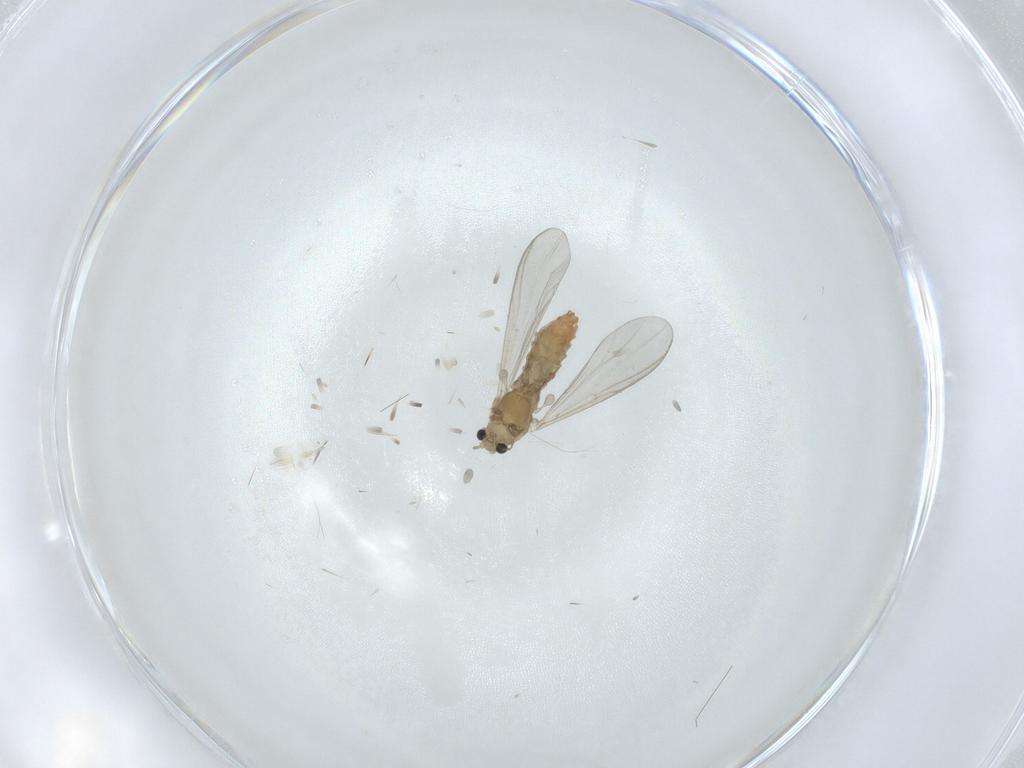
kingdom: Animalia
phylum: Arthropoda
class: Insecta
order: Diptera
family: Chironomidae
